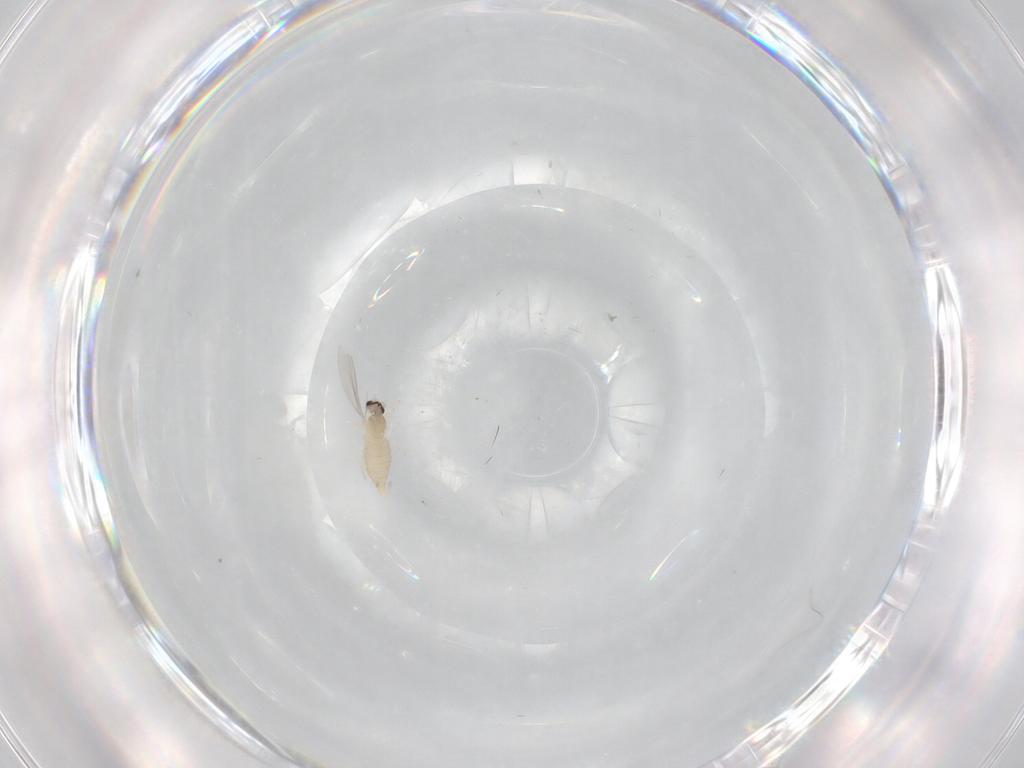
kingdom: Animalia
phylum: Arthropoda
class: Insecta
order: Diptera
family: Cecidomyiidae
